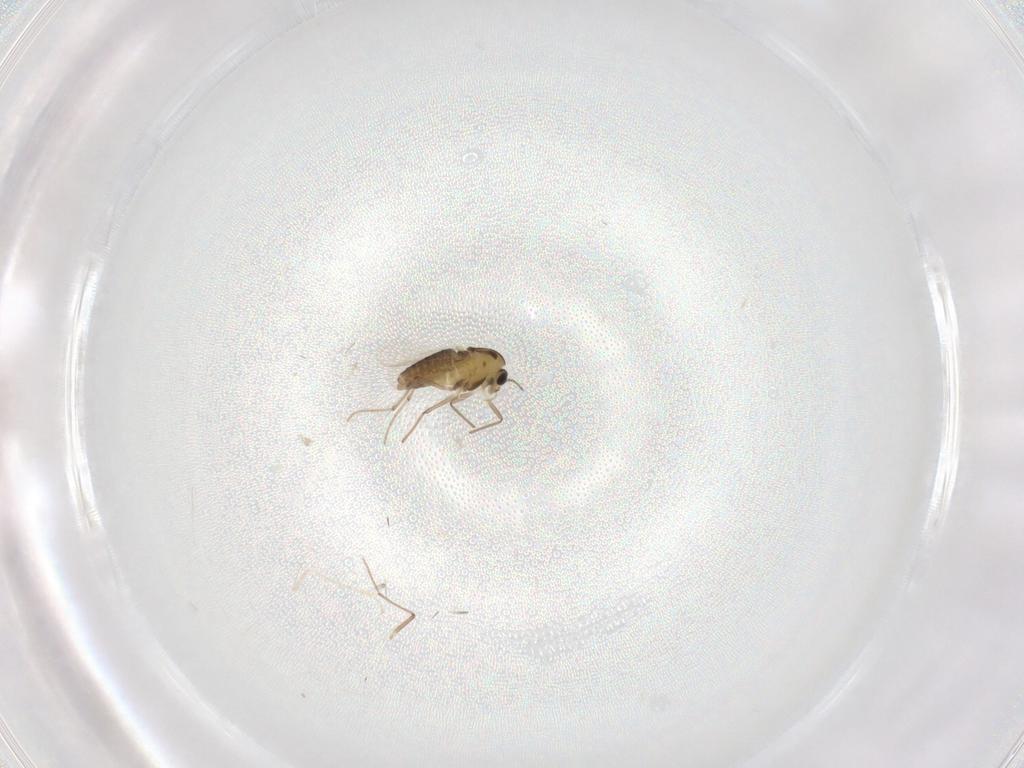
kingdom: Animalia
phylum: Arthropoda
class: Insecta
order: Diptera
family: Chironomidae
